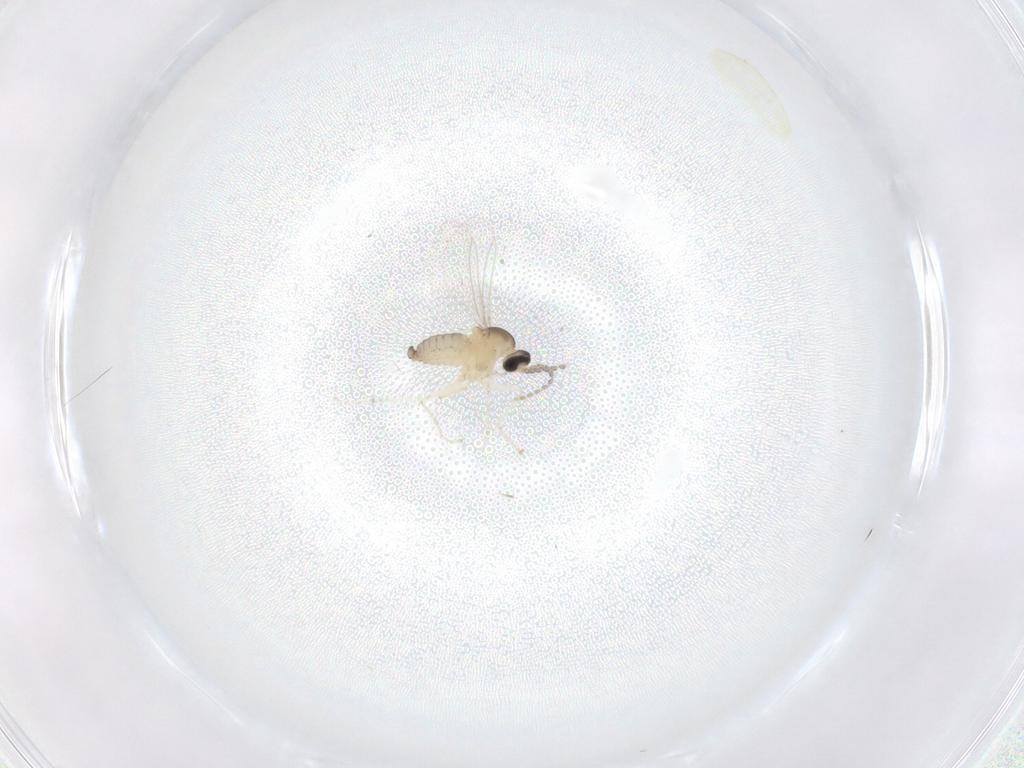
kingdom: Animalia
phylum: Arthropoda
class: Insecta
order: Diptera
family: Cecidomyiidae
